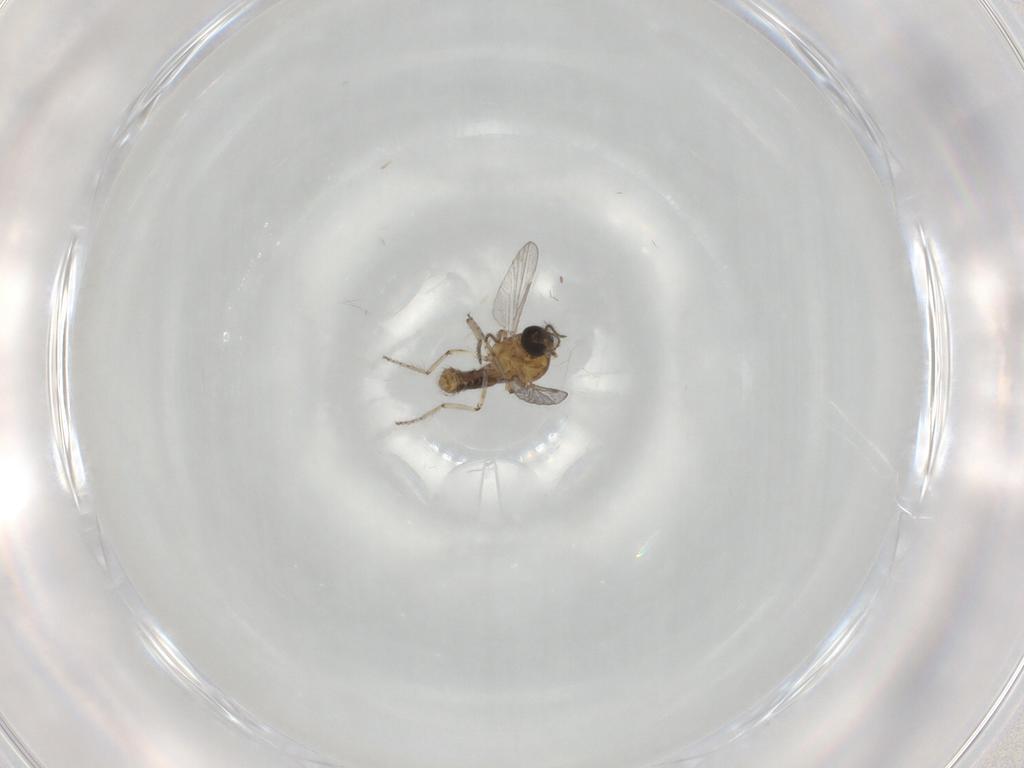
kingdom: Animalia
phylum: Arthropoda
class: Insecta
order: Diptera
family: Ceratopogonidae
